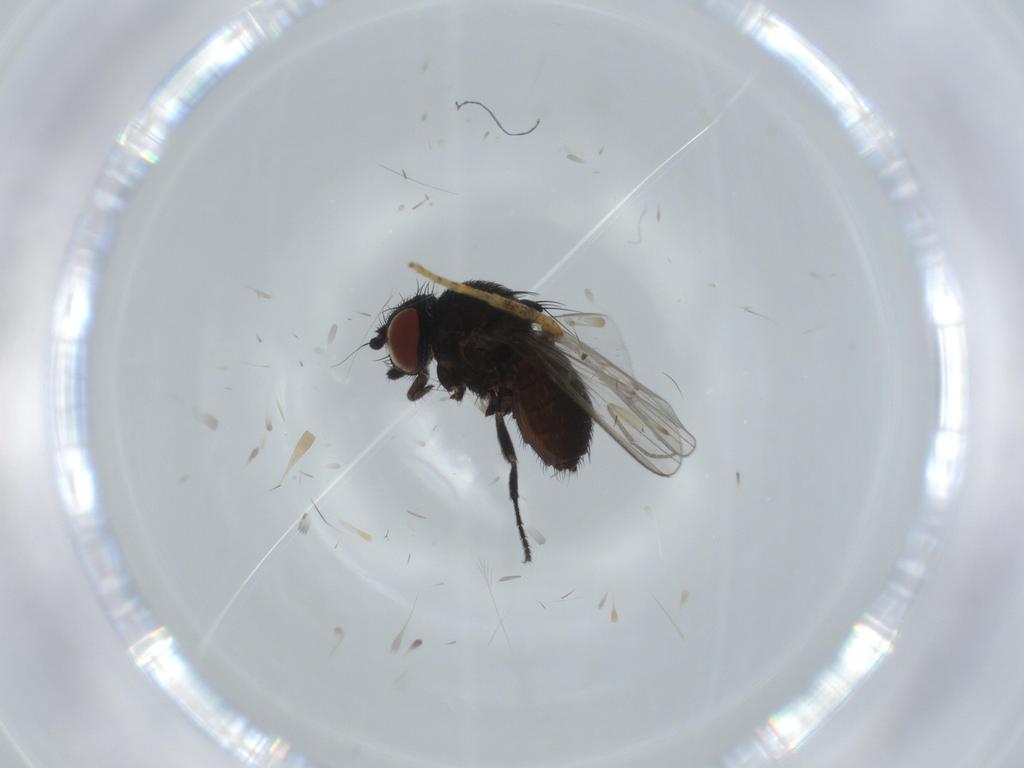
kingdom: Animalia
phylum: Arthropoda
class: Insecta
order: Diptera
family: Milichiidae
